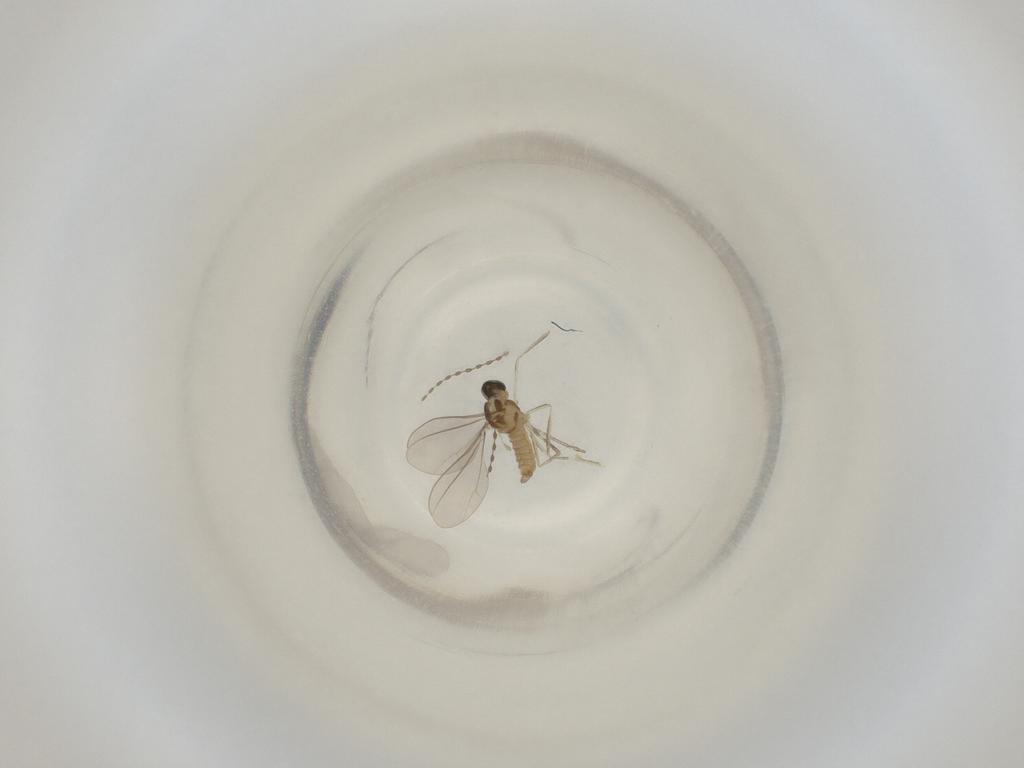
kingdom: Animalia
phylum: Arthropoda
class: Insecta
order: Diptera
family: Cecidomyiidae
